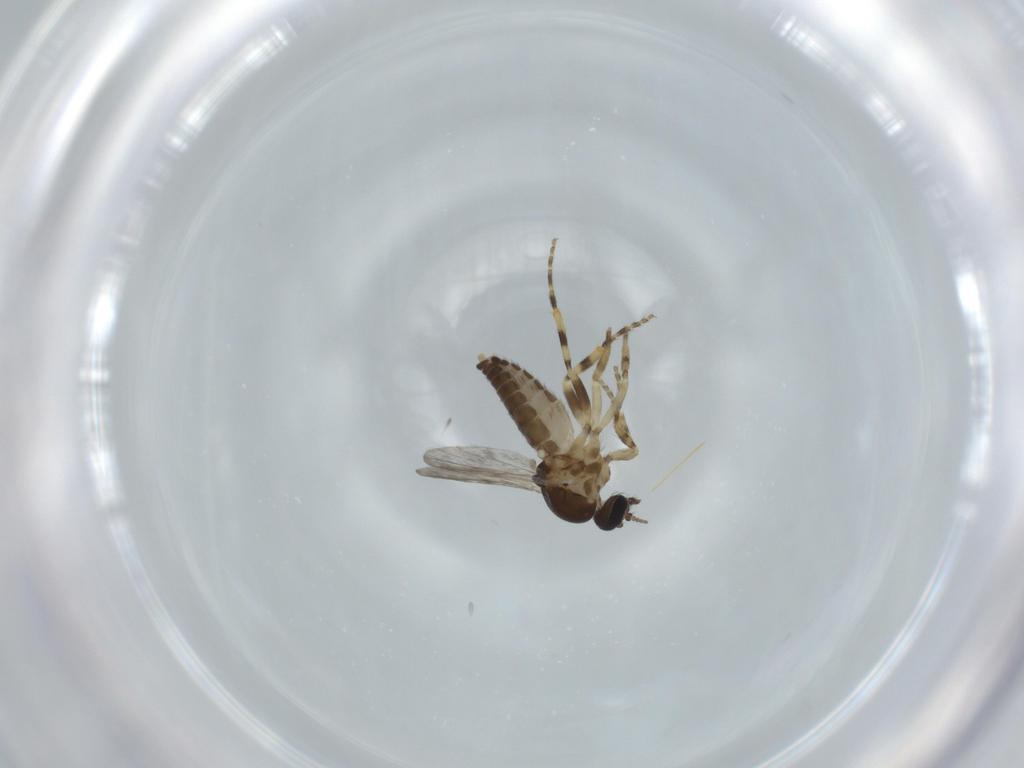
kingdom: Animalia
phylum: Arthropoda
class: Insecta
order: Diptera
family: Ceratopogonidae
